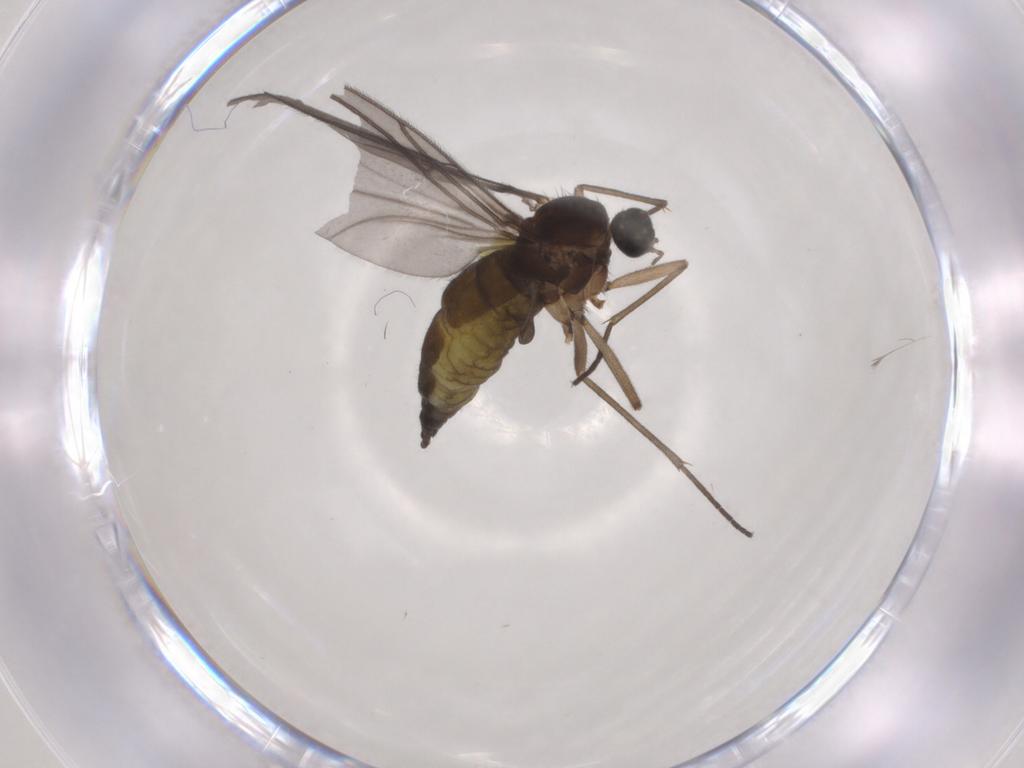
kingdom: Animalia
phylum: Arthropoda
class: Insecta
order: Diptera
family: Sciaridae
